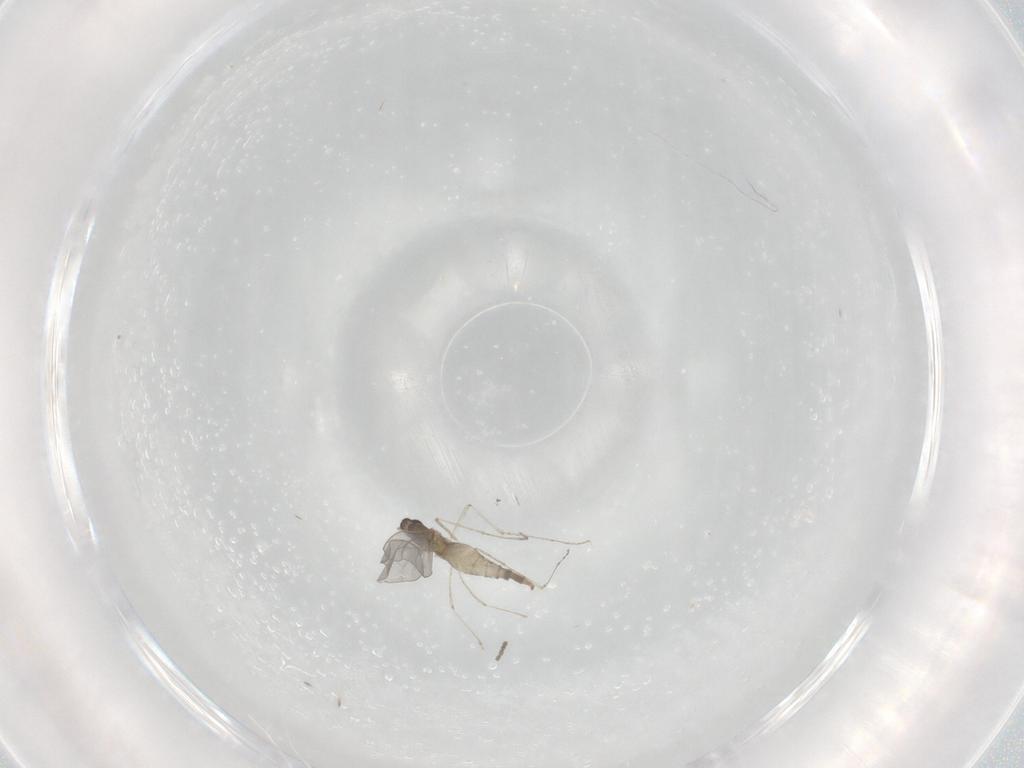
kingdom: Animalia
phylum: Arthropoda
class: Insecta
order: Diptera
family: Cecidomyiidae
